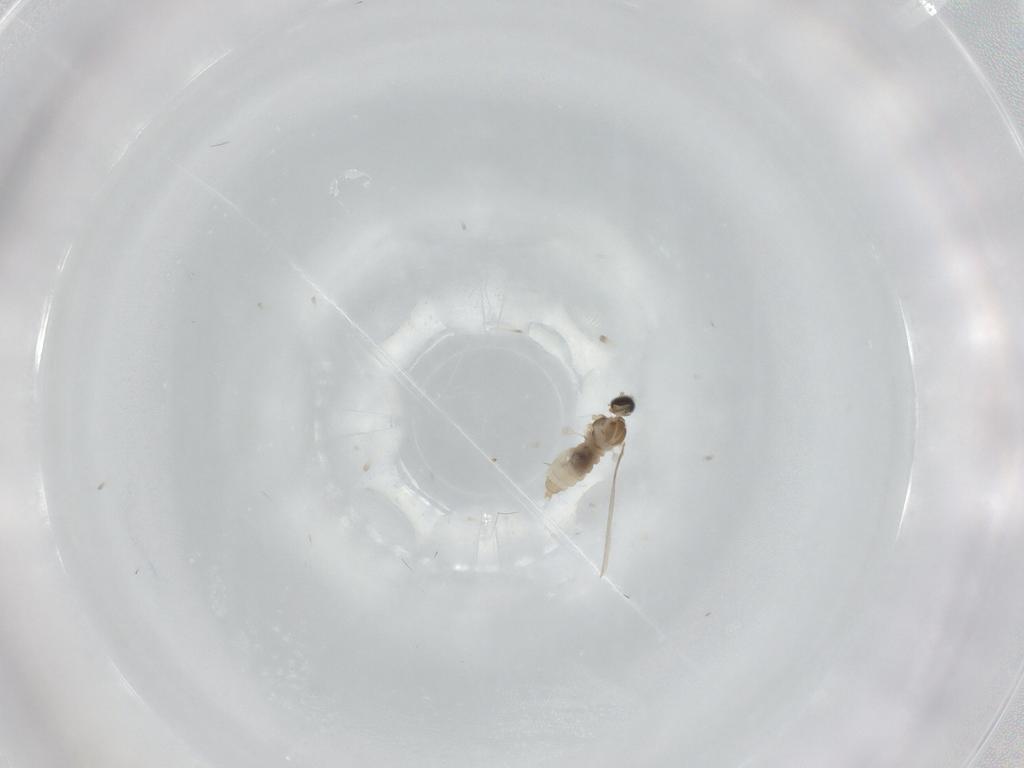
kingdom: Animalia
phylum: Arthropoda
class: Insecta
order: Diptera
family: Cecidomyiidae
